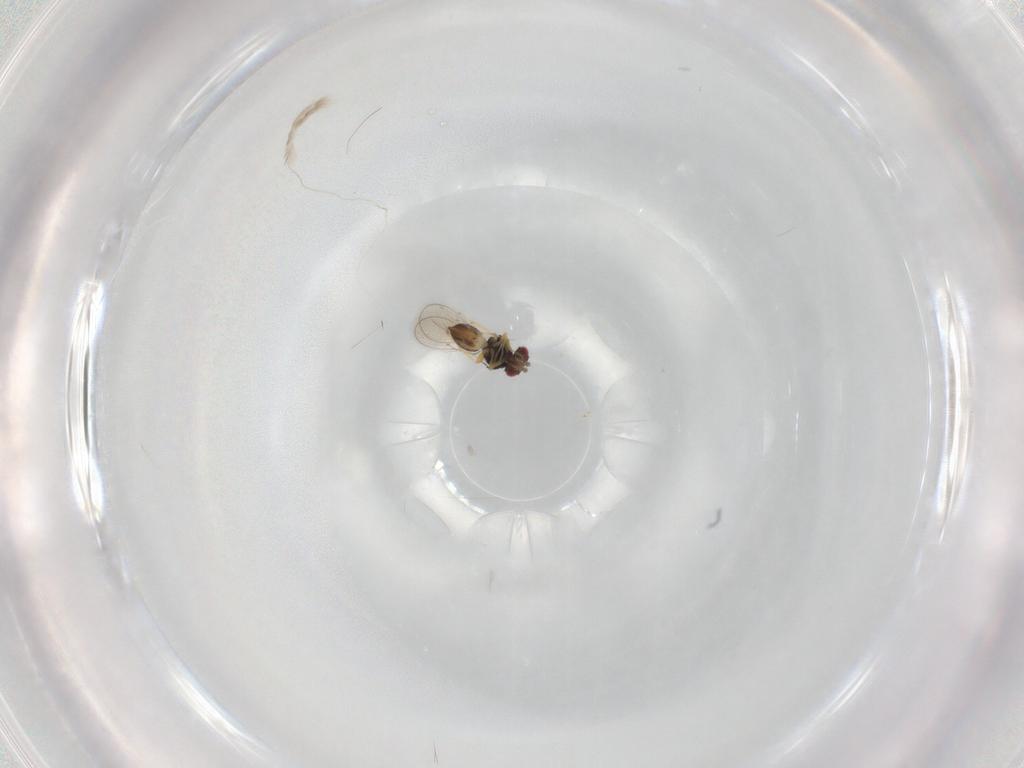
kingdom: Animalia
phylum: Arthropoda
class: Insecta
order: Hymenoptera
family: Eulophidae
